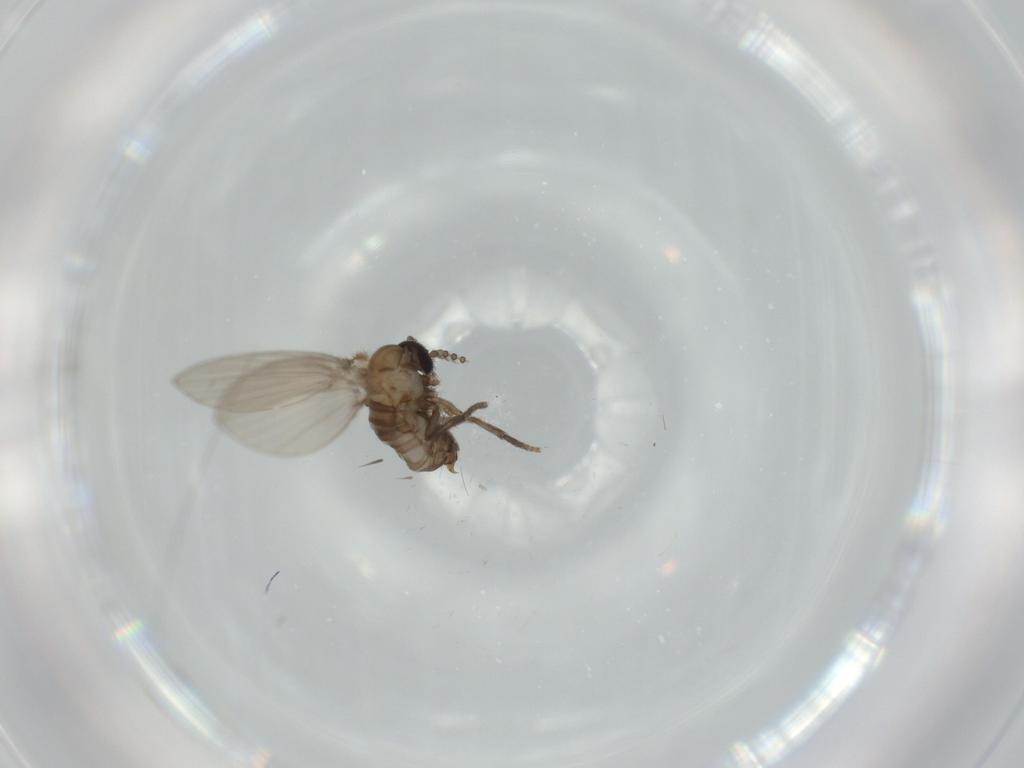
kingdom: Animalia
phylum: Arthropoda
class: Insecta
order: Diptera
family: Psychodidae
